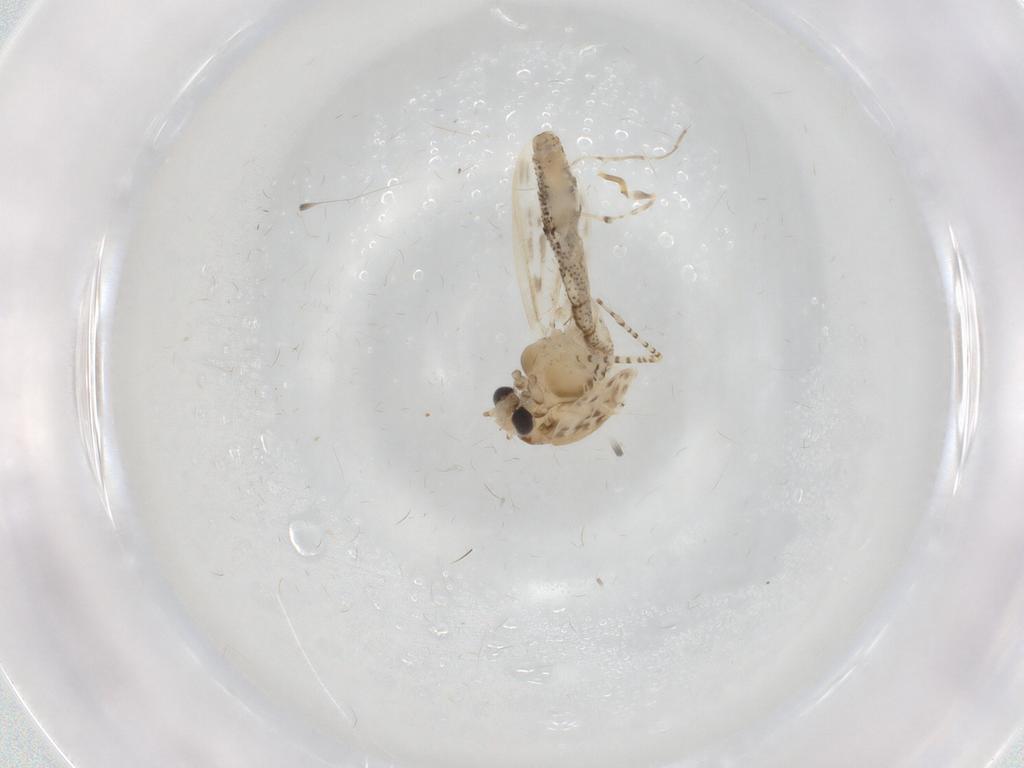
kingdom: Animalia
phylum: Arthropoda
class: Insecta
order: Diptera
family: Chaoboridae
